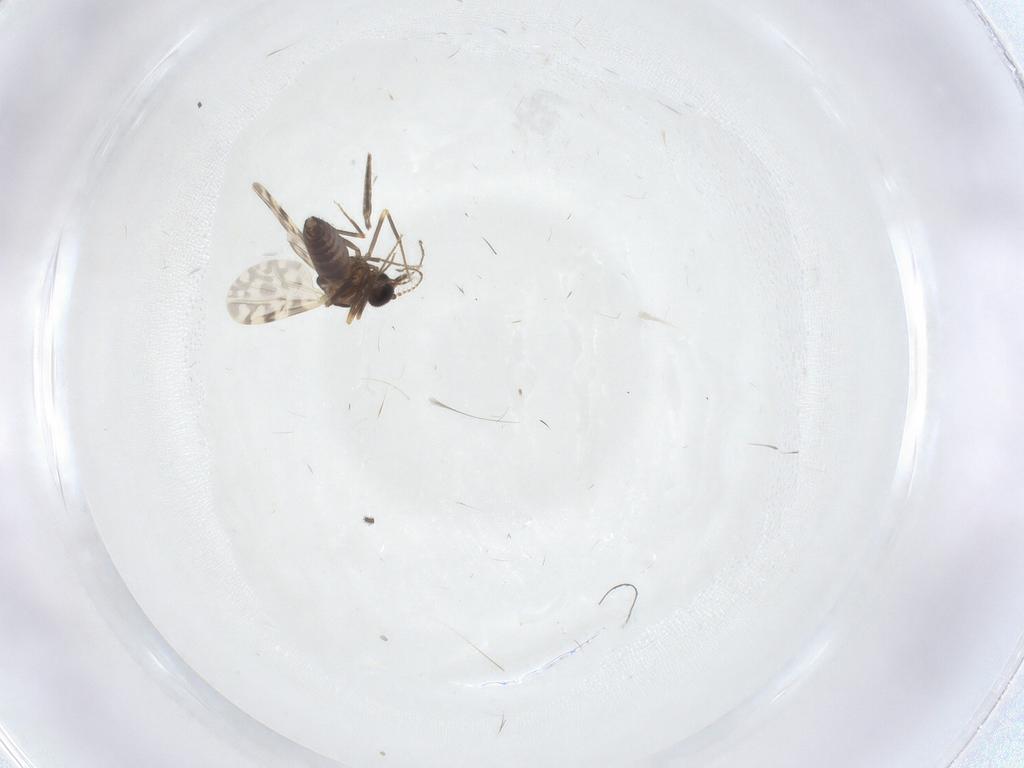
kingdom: Animalia
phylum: Arthropoda
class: Insecta
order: Diptera
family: Ceratopogonidae
